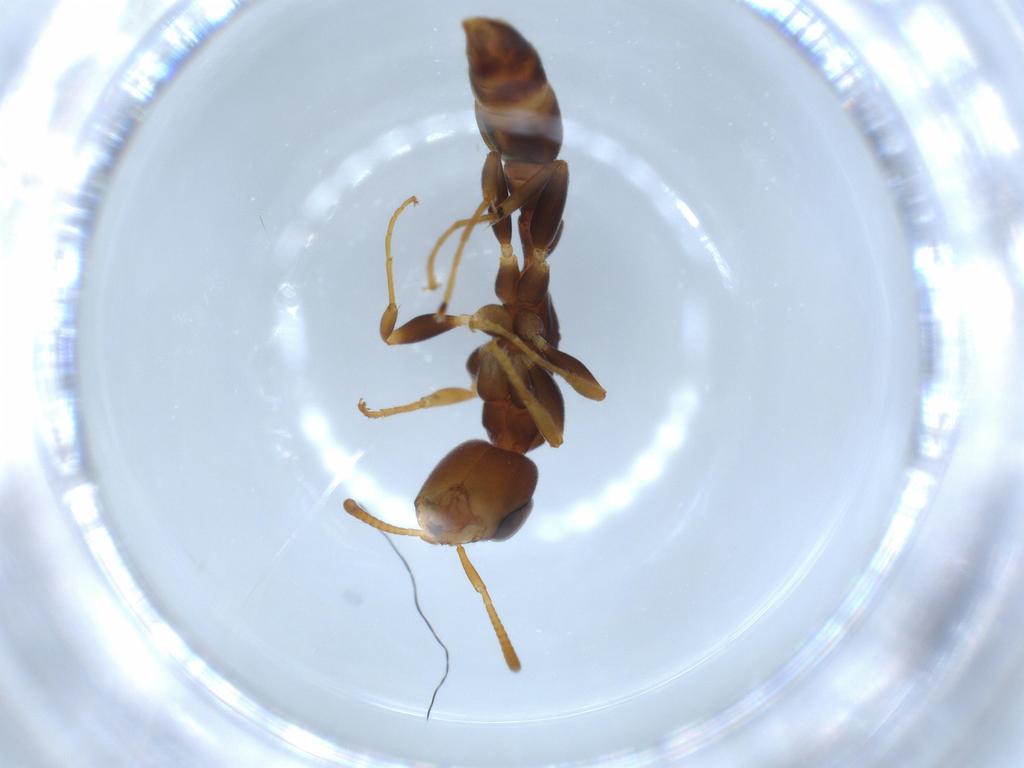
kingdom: Animalia
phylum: Arthropoda
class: Insecta
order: Hymenoptera
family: Formicidae
